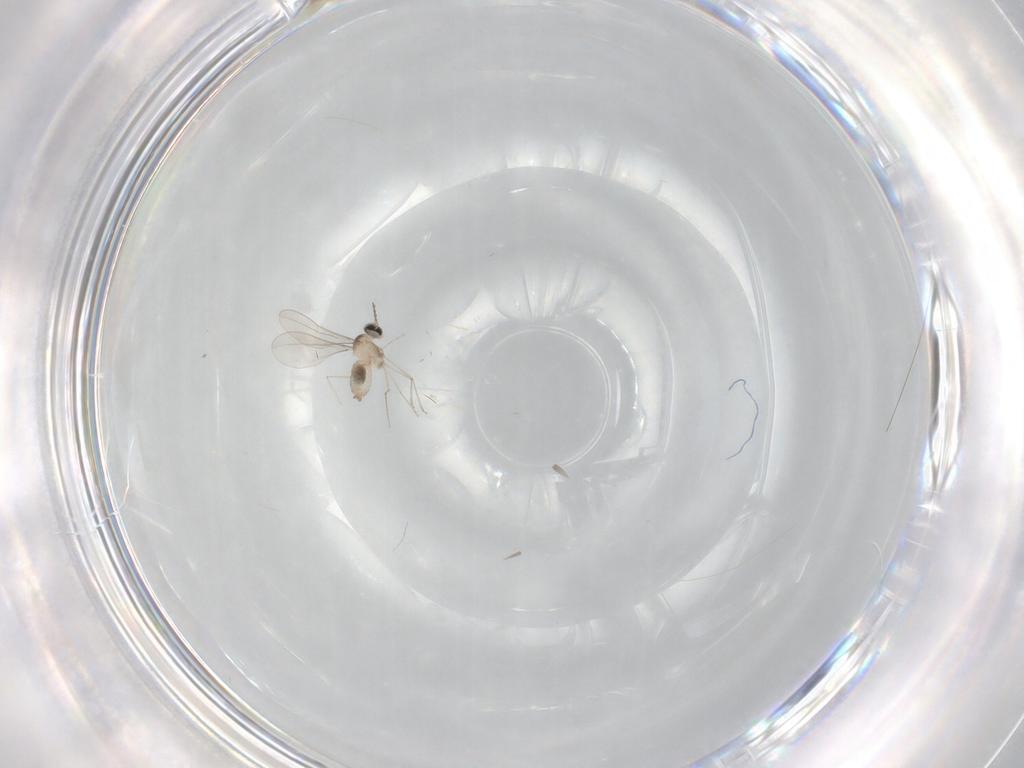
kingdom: Animalia
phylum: Arthropoda
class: Insecta
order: Diptera
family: Cecidomyiidae
